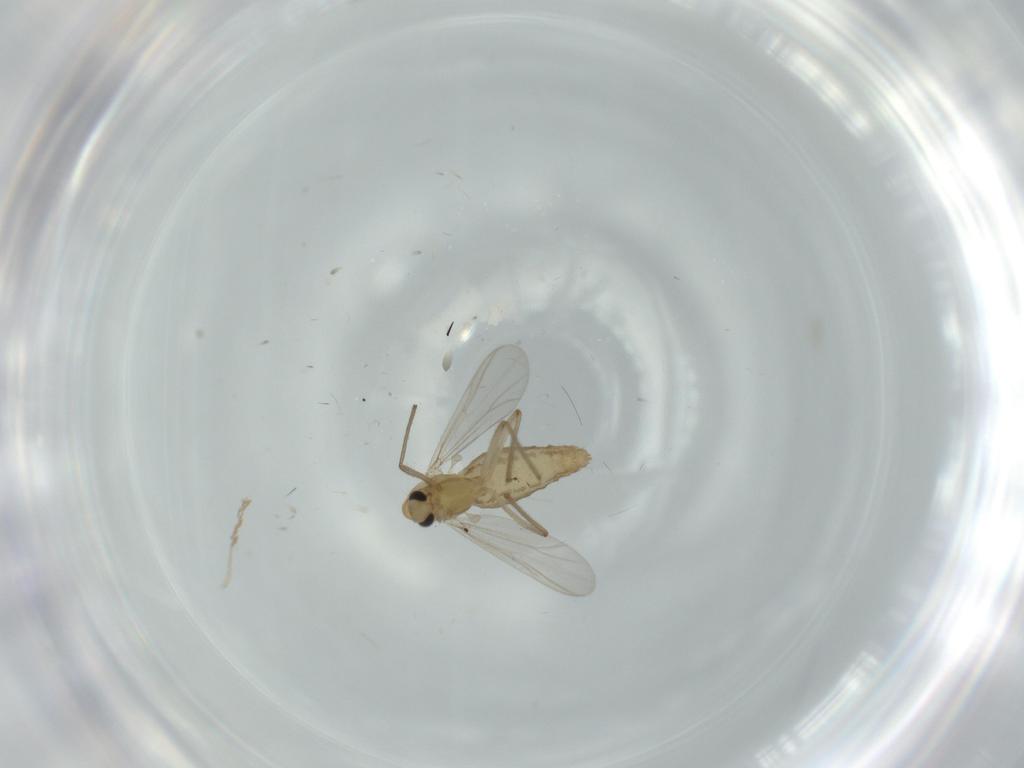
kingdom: Animalia
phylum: Arthropoda
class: Insecta
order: Diptera
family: Chironomidae
